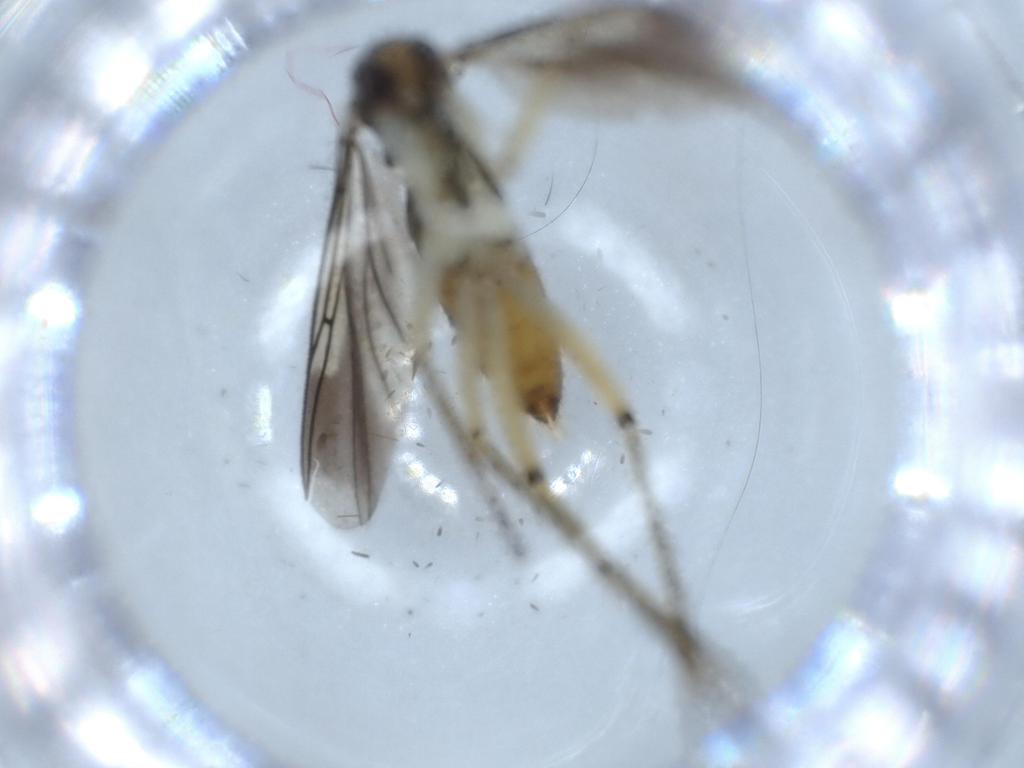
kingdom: Animalia
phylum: Arthropoda
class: Insecta
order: Diptera
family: Mycetophilidae
